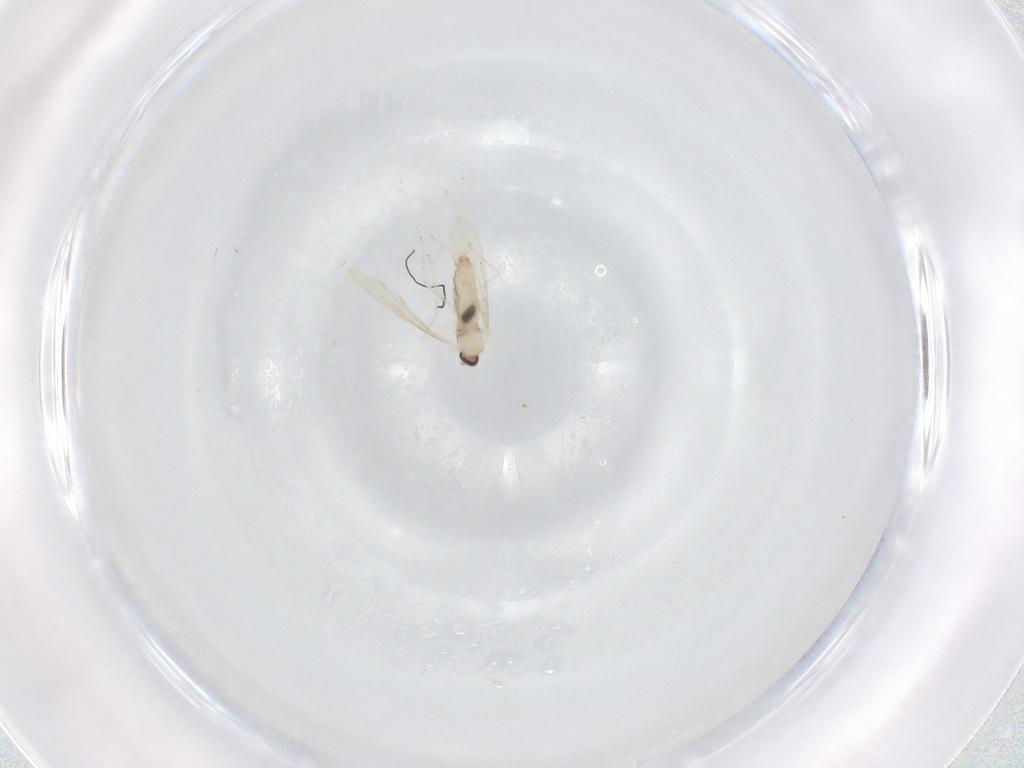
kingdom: Animalia
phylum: Arthropoda
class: Insecta
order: Diptera
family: Cecidomyiidae
